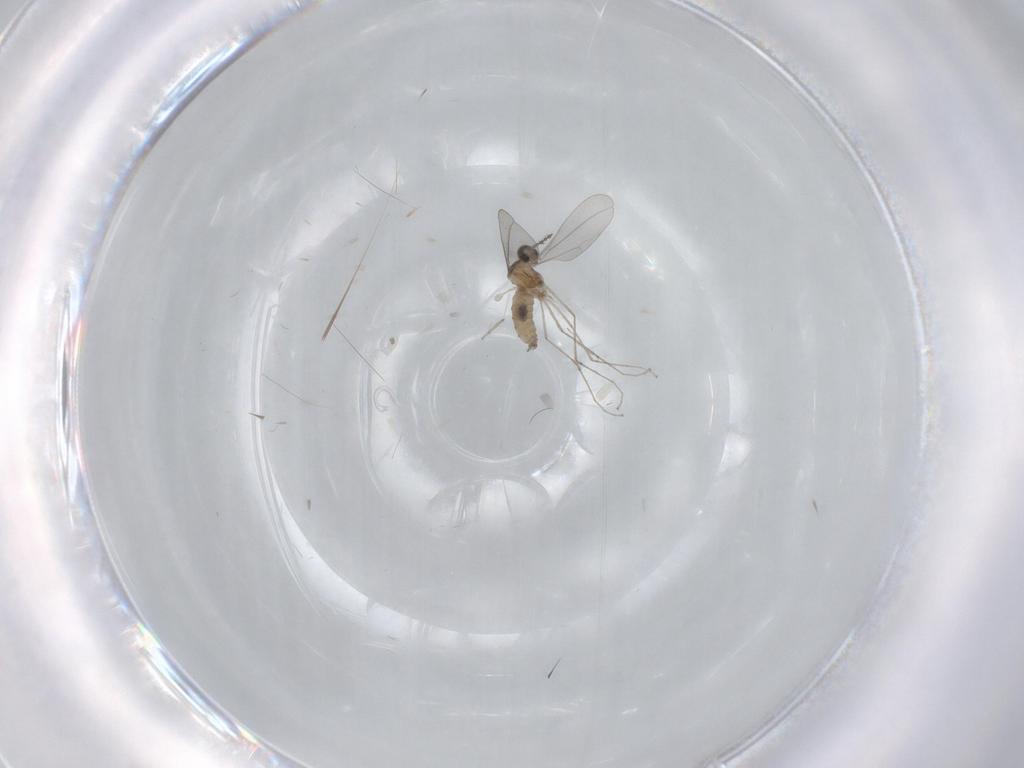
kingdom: Animalia
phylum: Arthropoda
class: Insecta
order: Diptera
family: Cecidomyiidae
